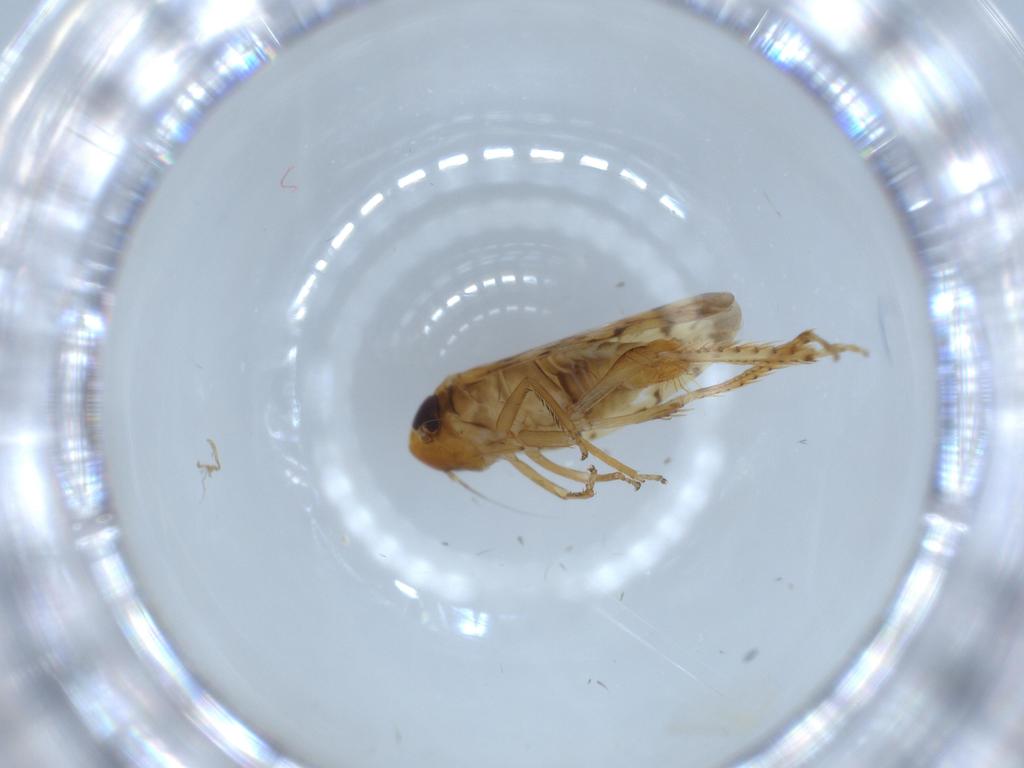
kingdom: Animalia
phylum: Arthropoda
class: Insecta
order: Hemiptera
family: Cicadellidae
